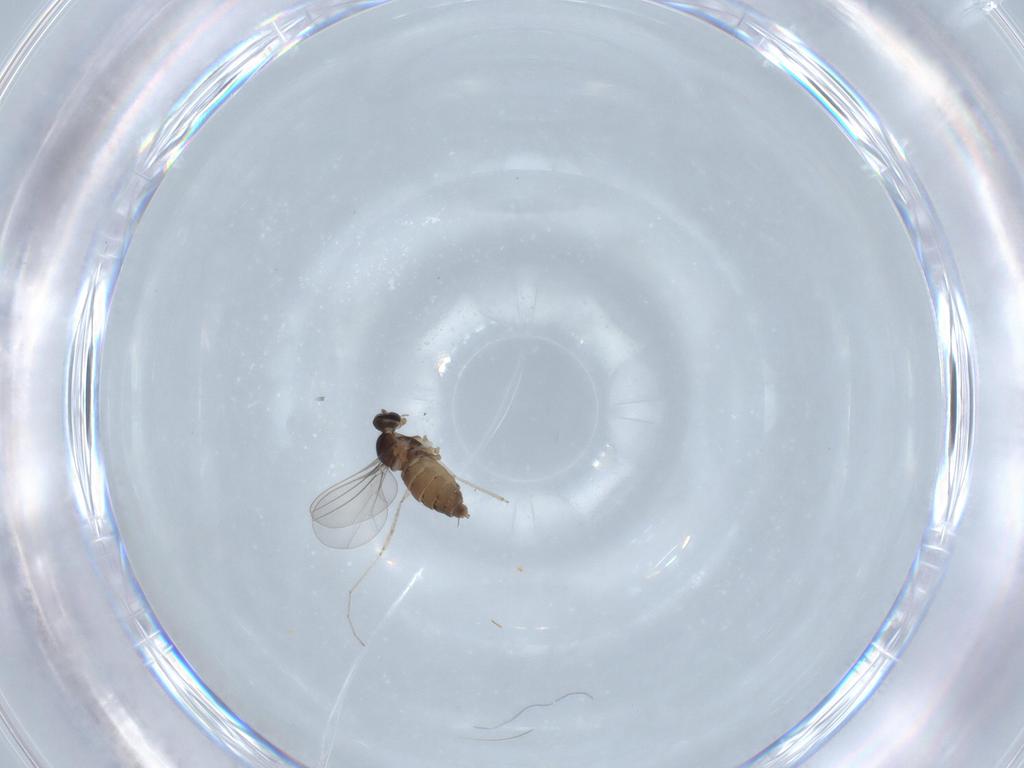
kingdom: Animalia
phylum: Arthropoda
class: Insecta
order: Diptera
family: Cecidomyiidae
